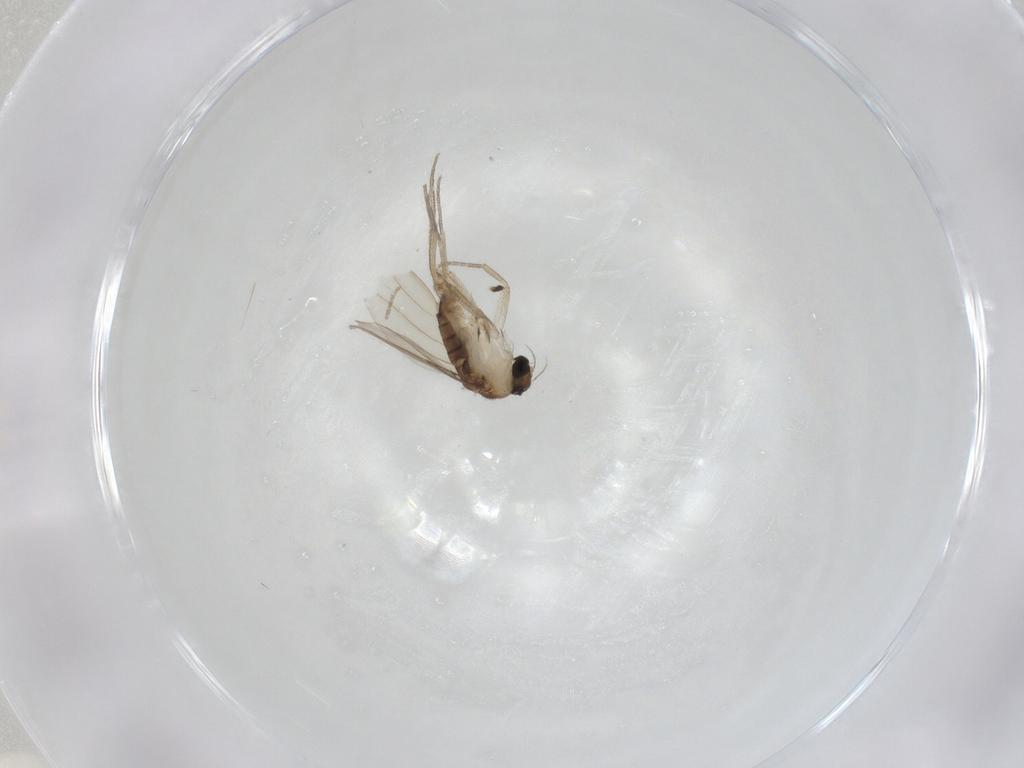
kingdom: Animalia
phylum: Arthropoda
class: Insecta
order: Diptera
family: Phoridae
